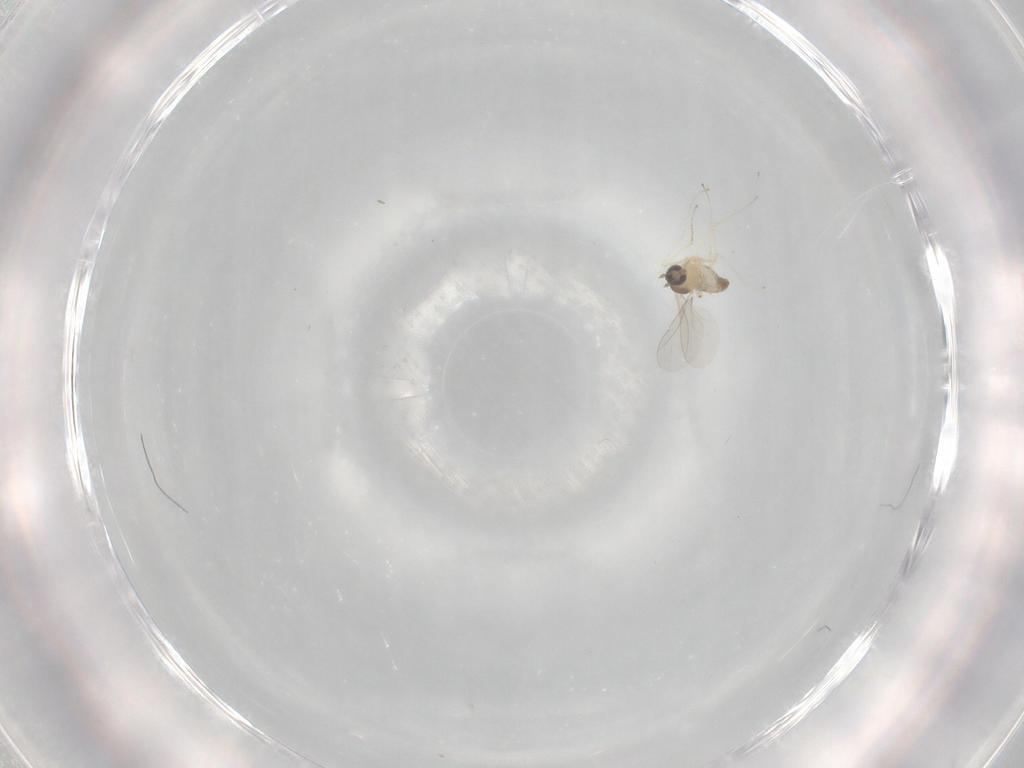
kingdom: Animalia
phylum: Arthropoda
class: Insecta
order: Diptera
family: Cecidomyiidae
